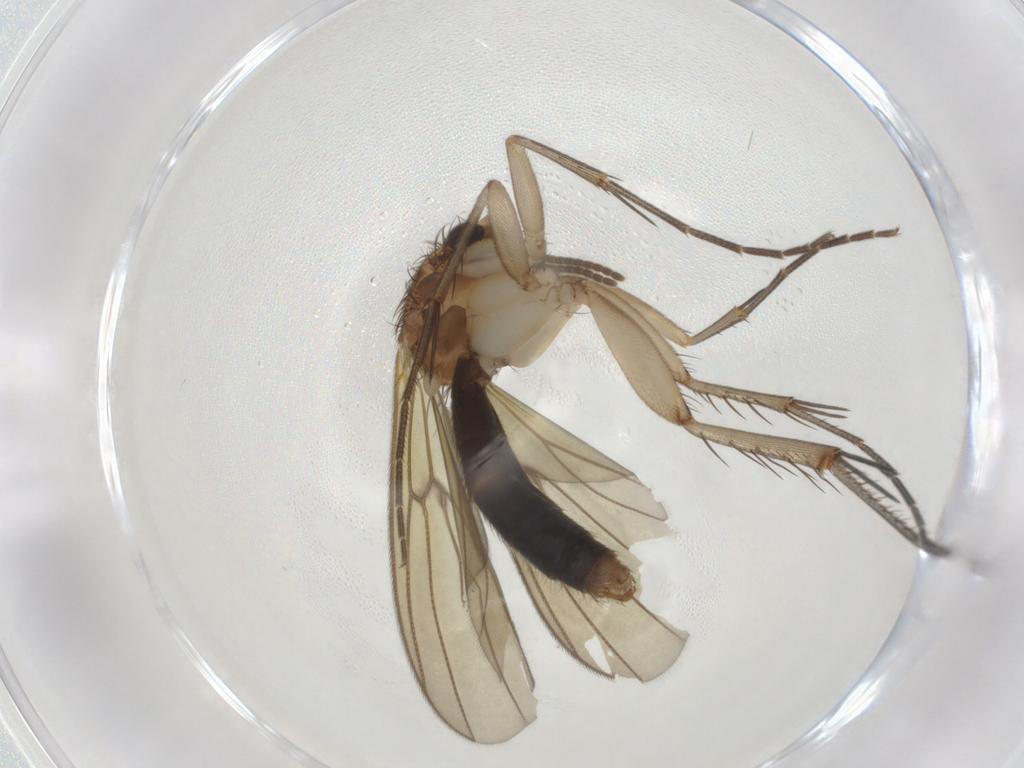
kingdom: Animalia
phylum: Arthropoda
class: Insecta
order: Diptera
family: Mycetophilidae
